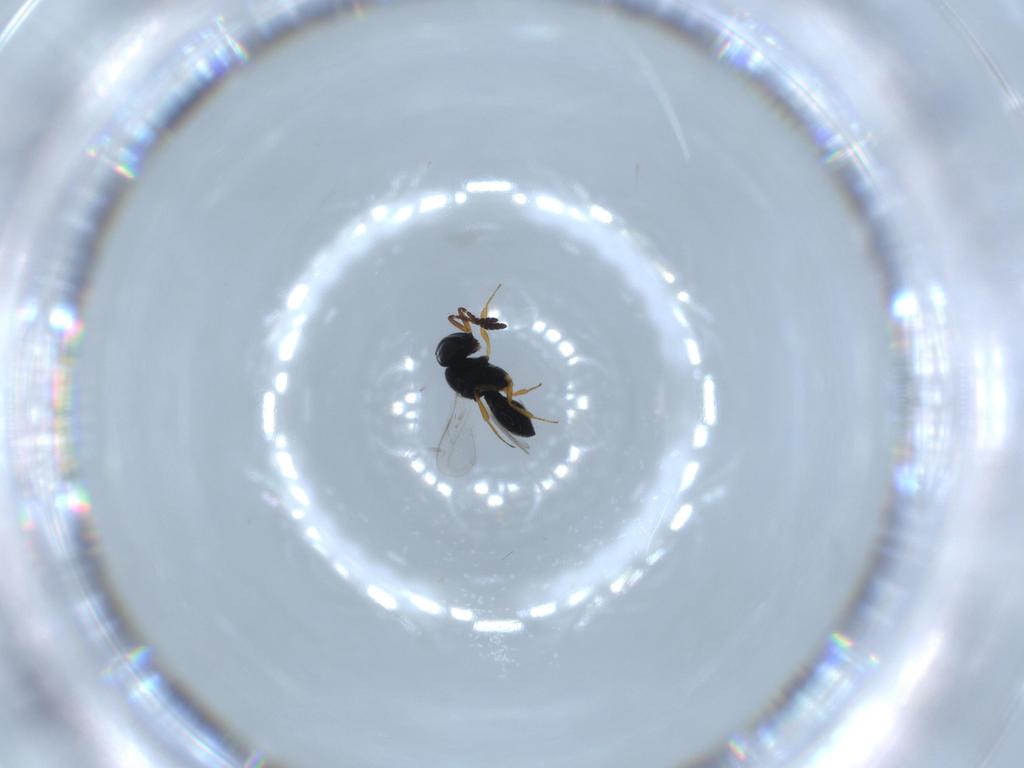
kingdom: Animalia
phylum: Arthropoda
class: Insecta
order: Hymenoptera
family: Scelionidae
